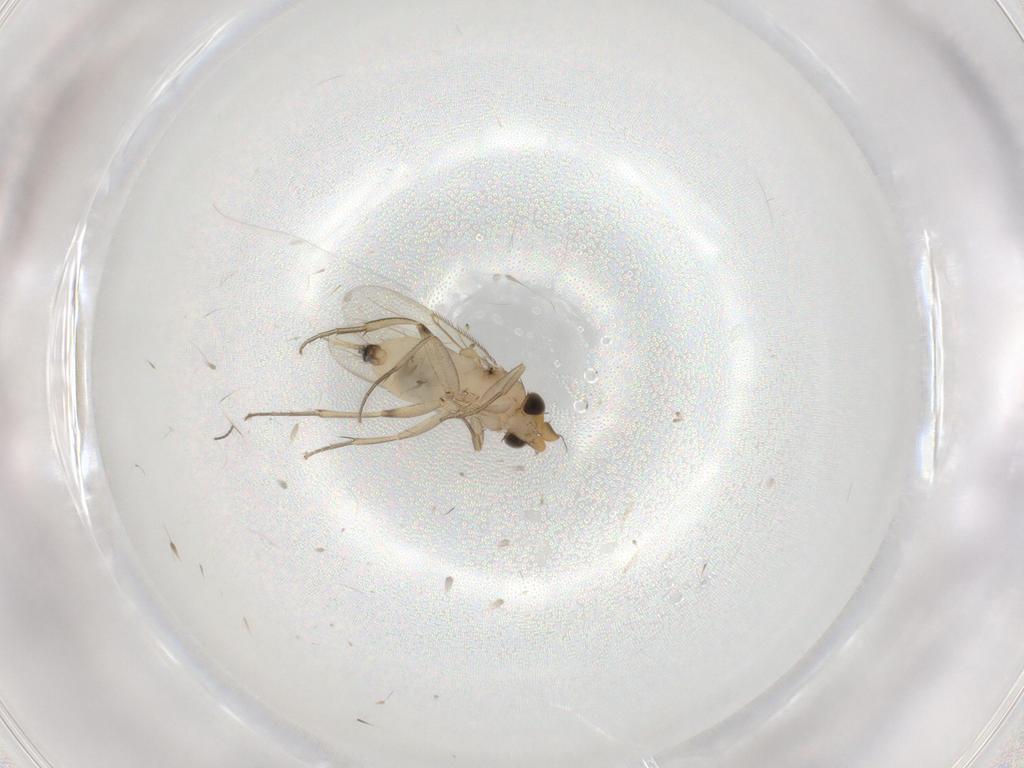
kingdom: Animalia
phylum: Arthropoda
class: Insecta
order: Diptera
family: Phoridae
